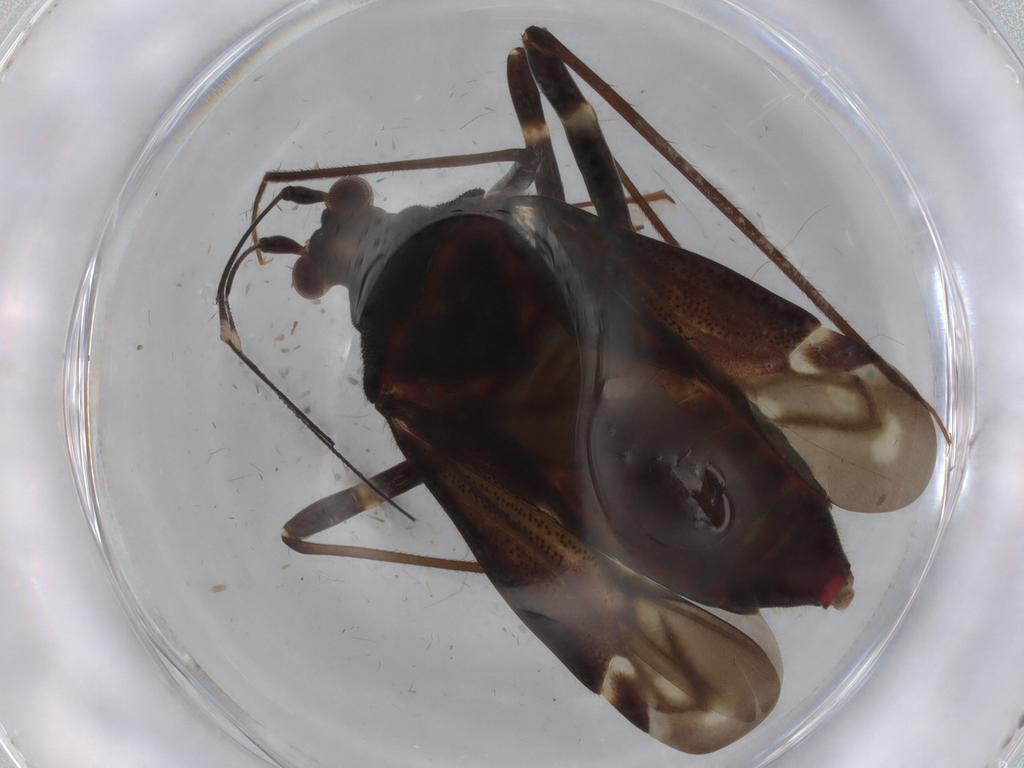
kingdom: Animalia
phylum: Arthropoda
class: Insecta
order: Hemiptera
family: Miridae
